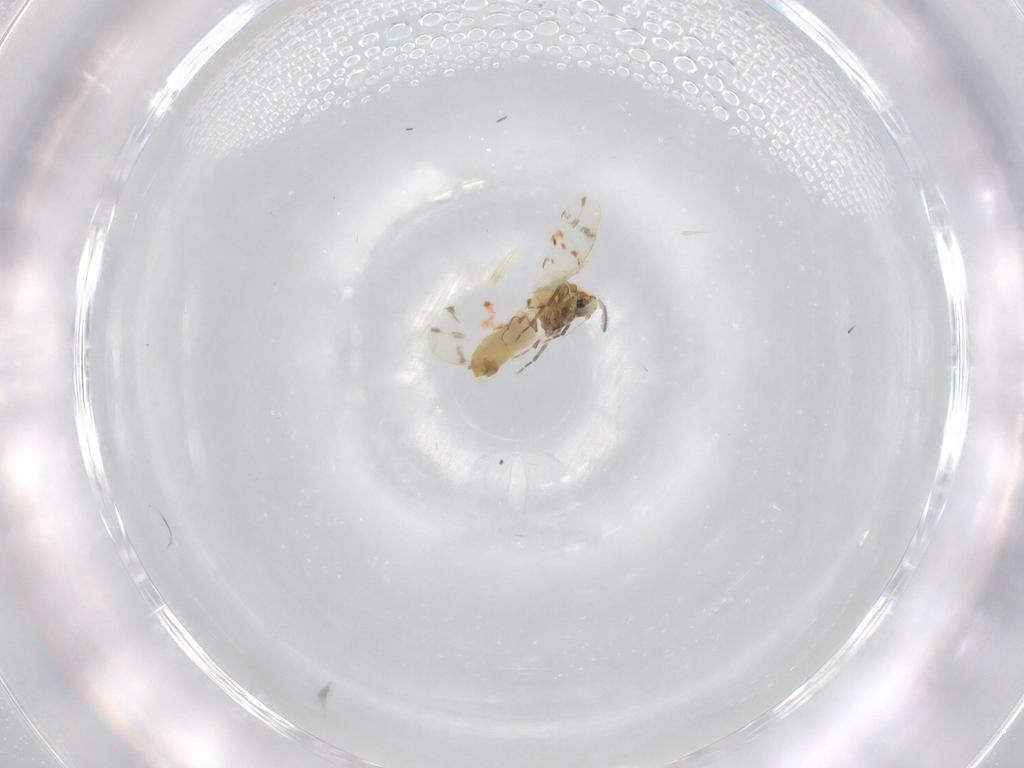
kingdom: Animalia
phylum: Arthropoda
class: Insecta
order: Hemiptera
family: Aleyrodidae
